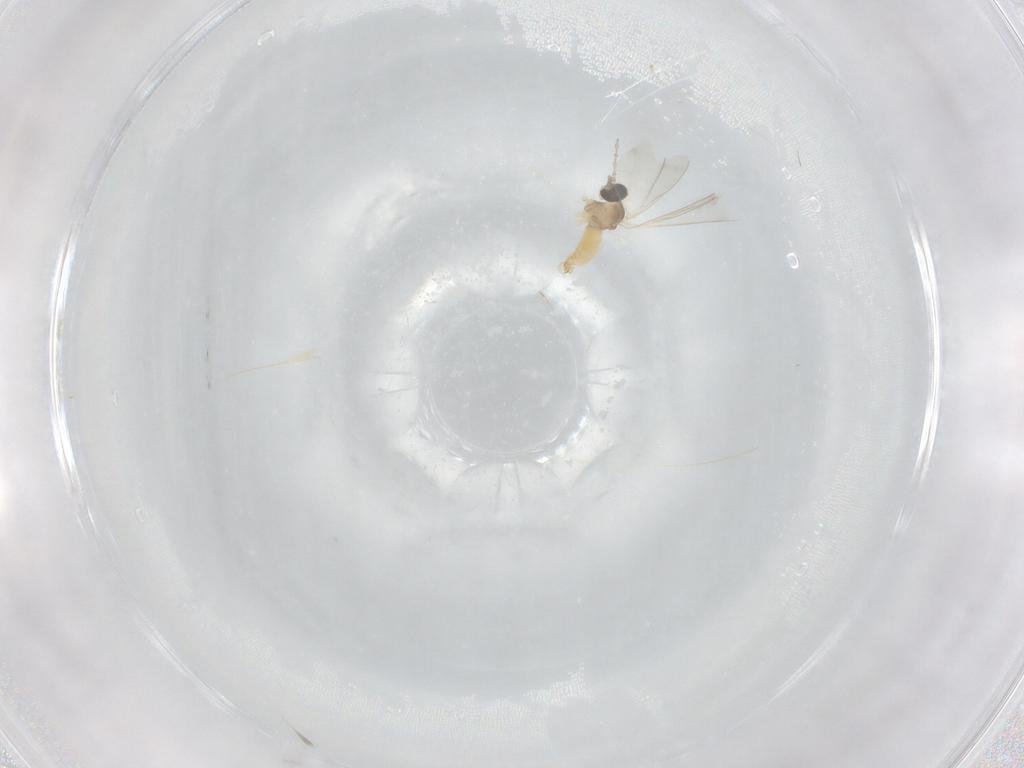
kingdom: Animalia
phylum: Arthropoda
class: Insecta
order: Diptera
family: Cecidomyiidae
